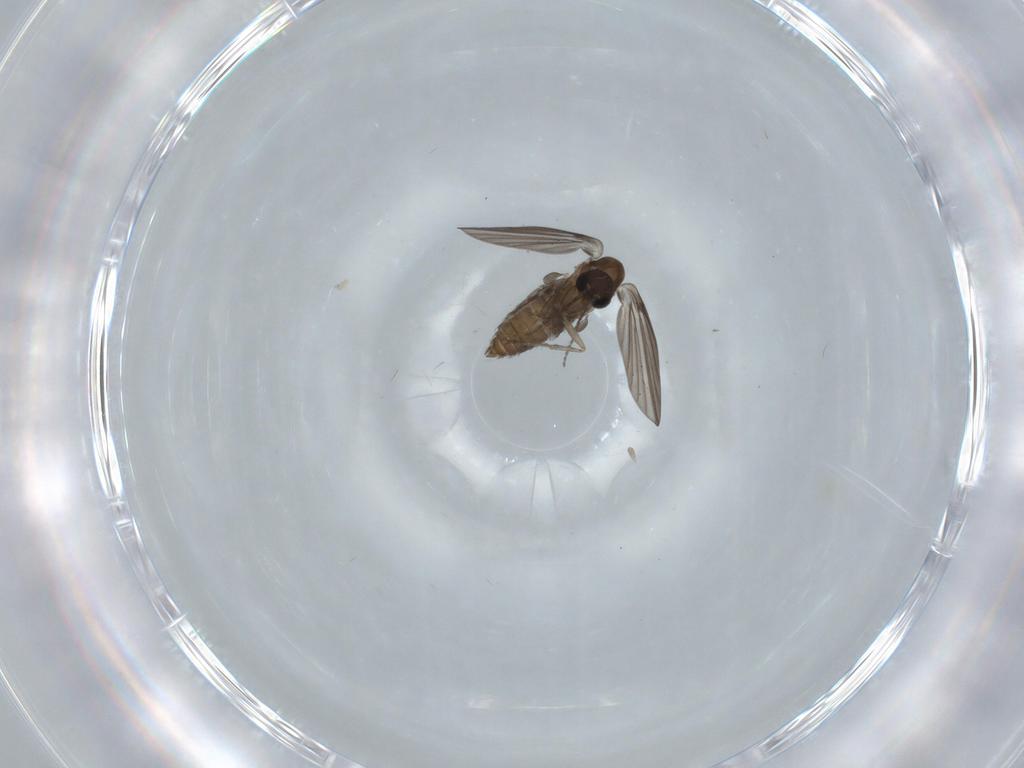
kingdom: Animalia
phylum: Arthropoda
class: Insecta
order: Diptera
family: Psychodidae
